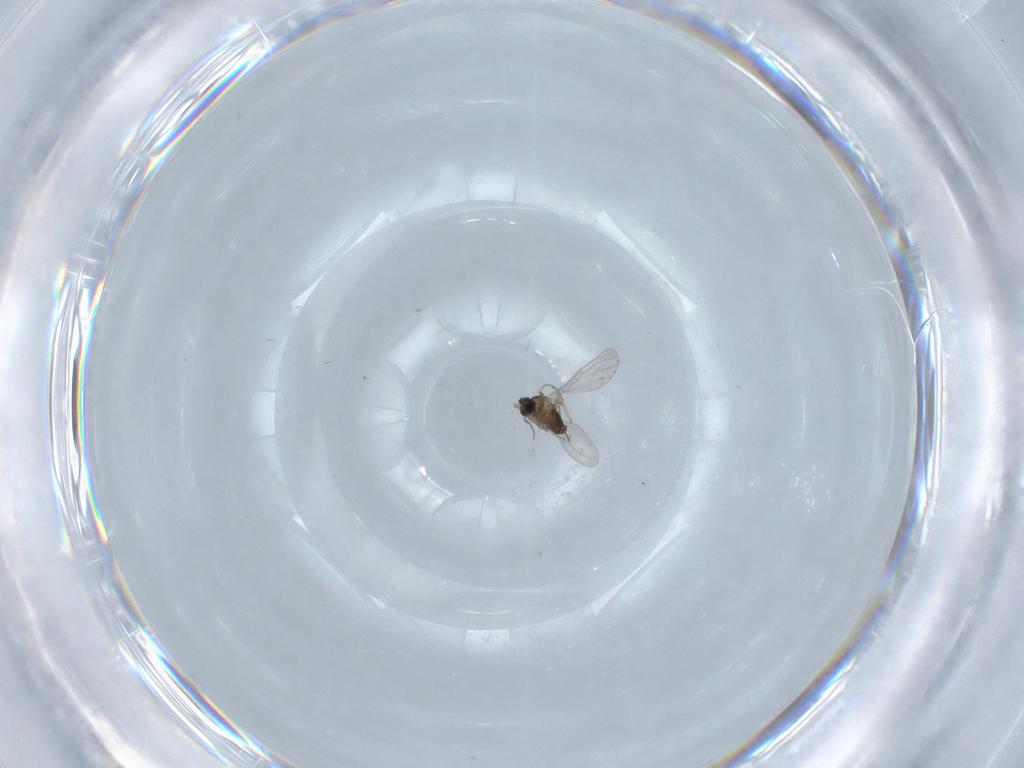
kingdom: Animalia
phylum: Arthropoda
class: Insecta
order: Diptera
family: Cecidomyiidae
